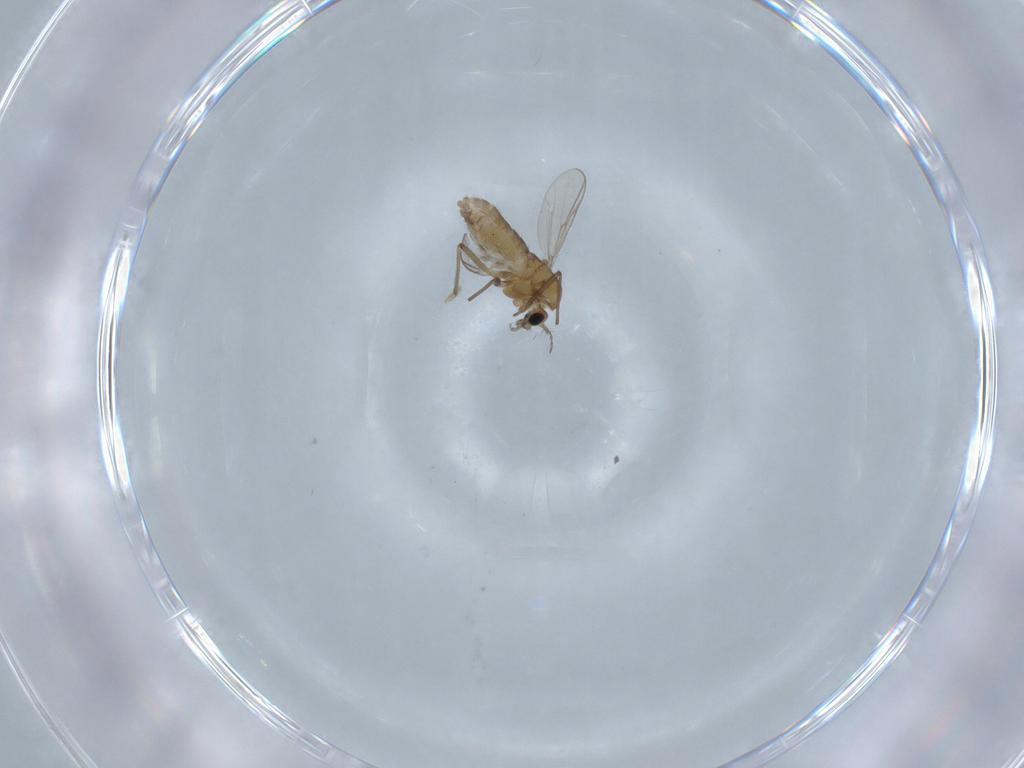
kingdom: Animalia
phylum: Arthropoda
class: Insecta
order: Diptera
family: Chironomidae
